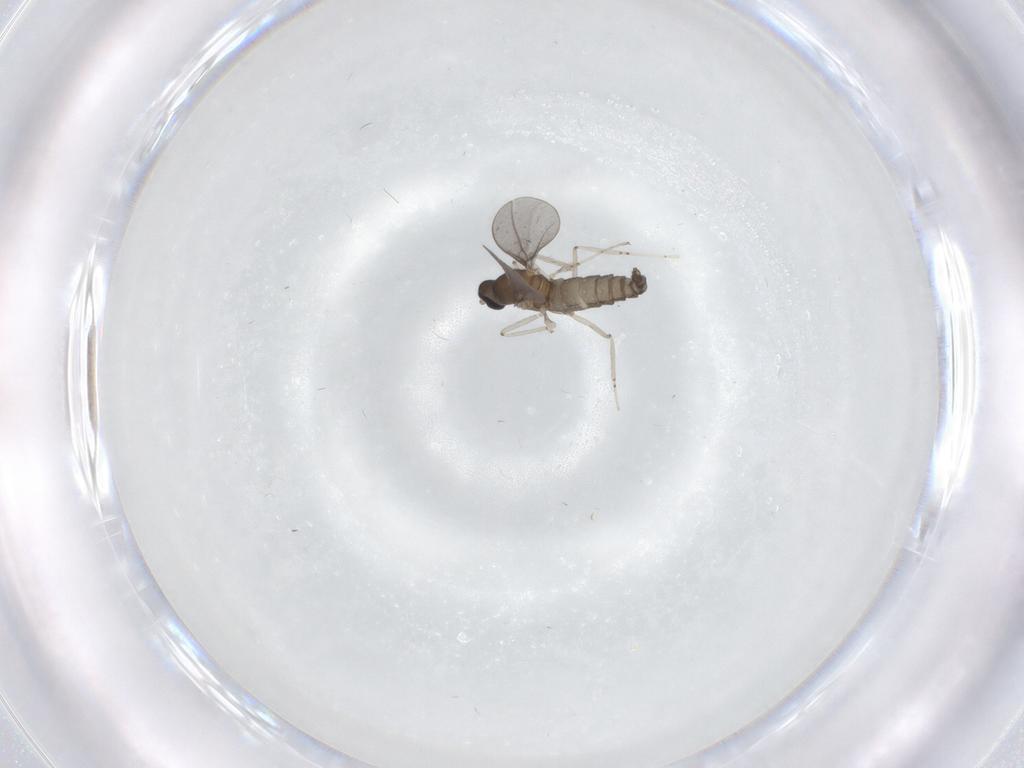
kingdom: Animalia
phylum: Arthropoda
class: Insecta
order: Diptera
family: Cecidomyiidae
